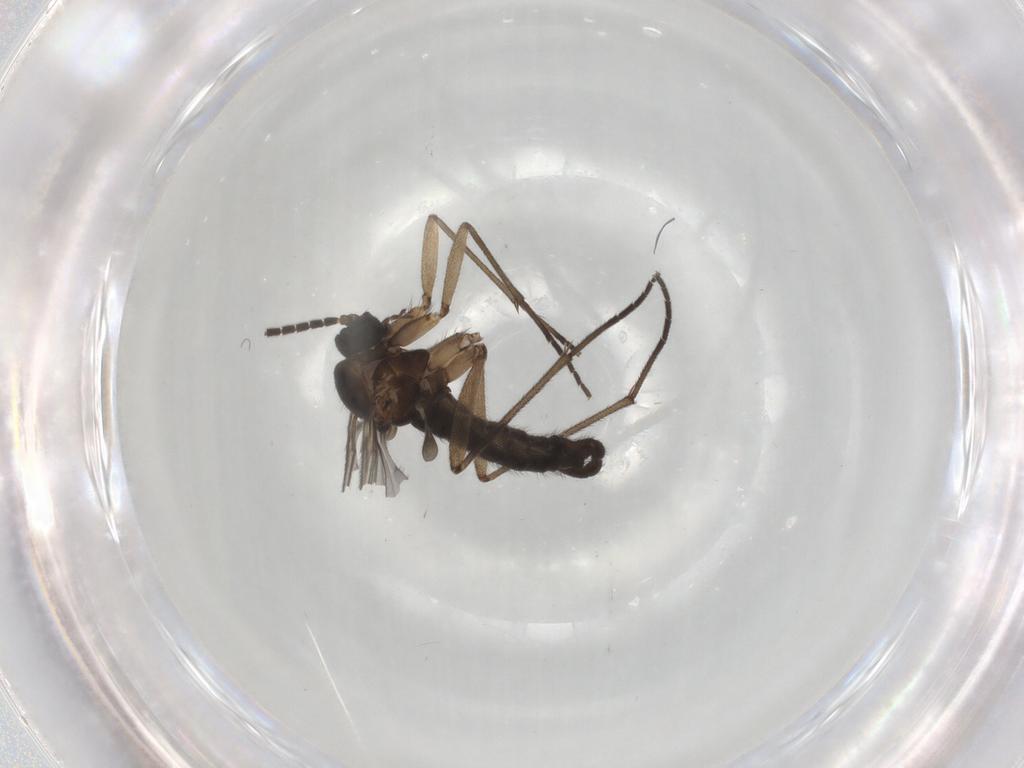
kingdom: Animalia
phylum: Arthropoda
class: Insecta
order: Diptera
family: Sciaridae
